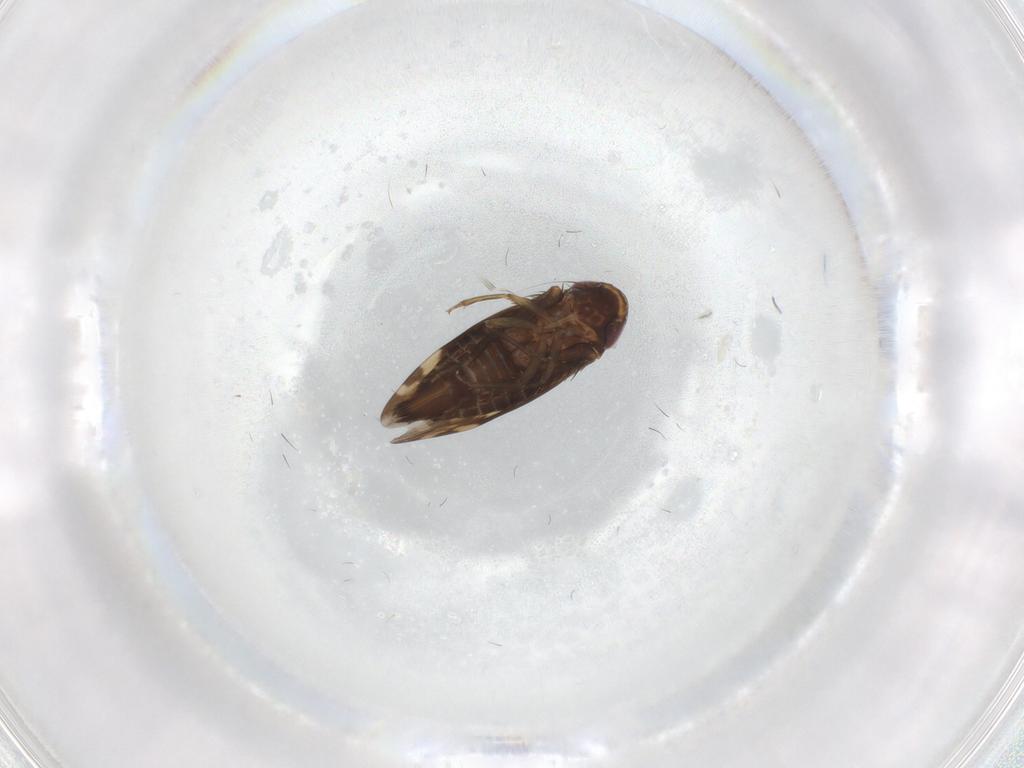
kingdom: Animalia
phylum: Arthropoda
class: Insecta
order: Hemiptera
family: Cicadellidae
